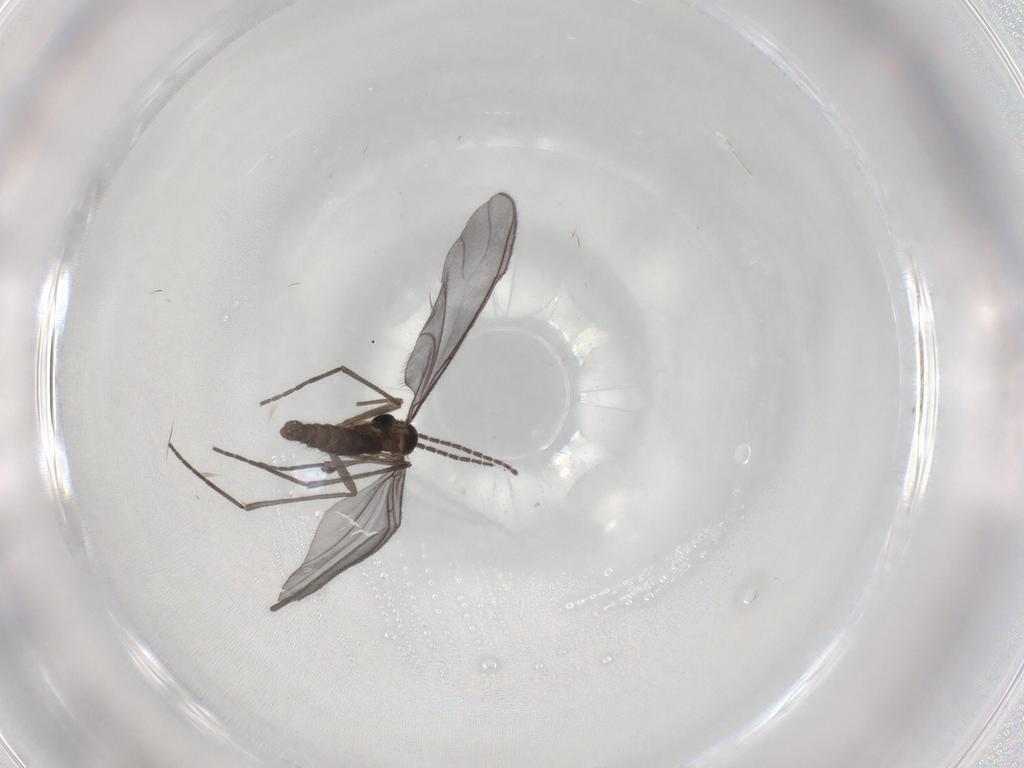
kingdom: Animalia
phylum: Arthropoda
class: Insecta
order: Diptera
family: Sciaridae
